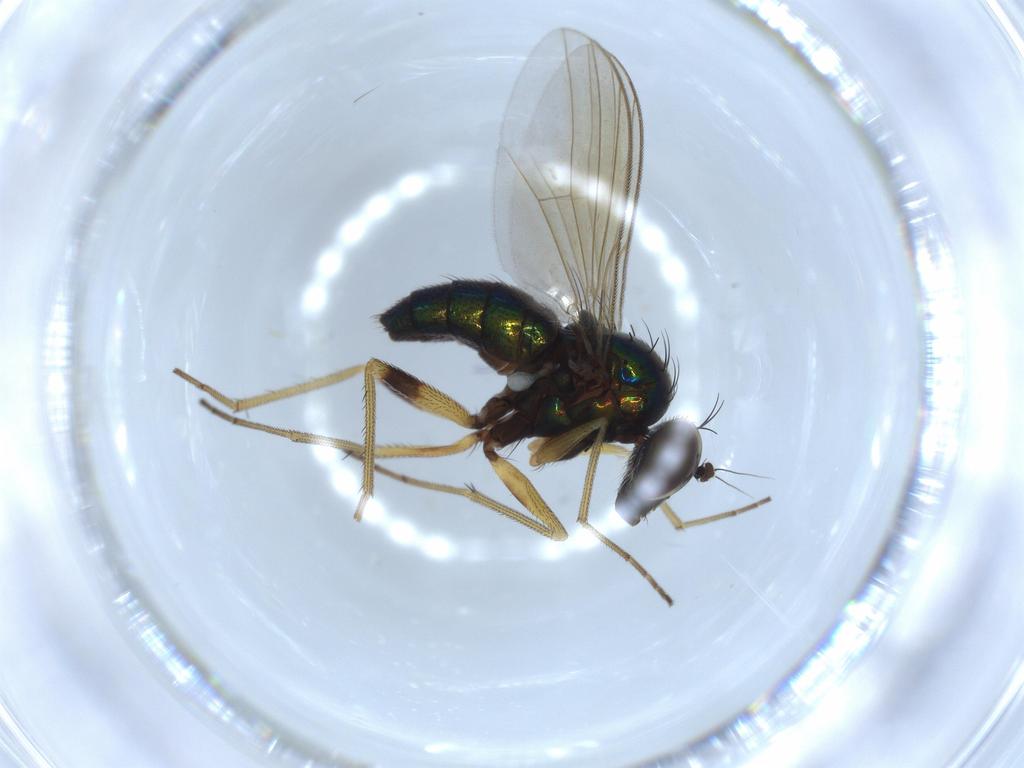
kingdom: Animalia
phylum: Arthropoda
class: Insecta
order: Diptera
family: Dolichopodidae
